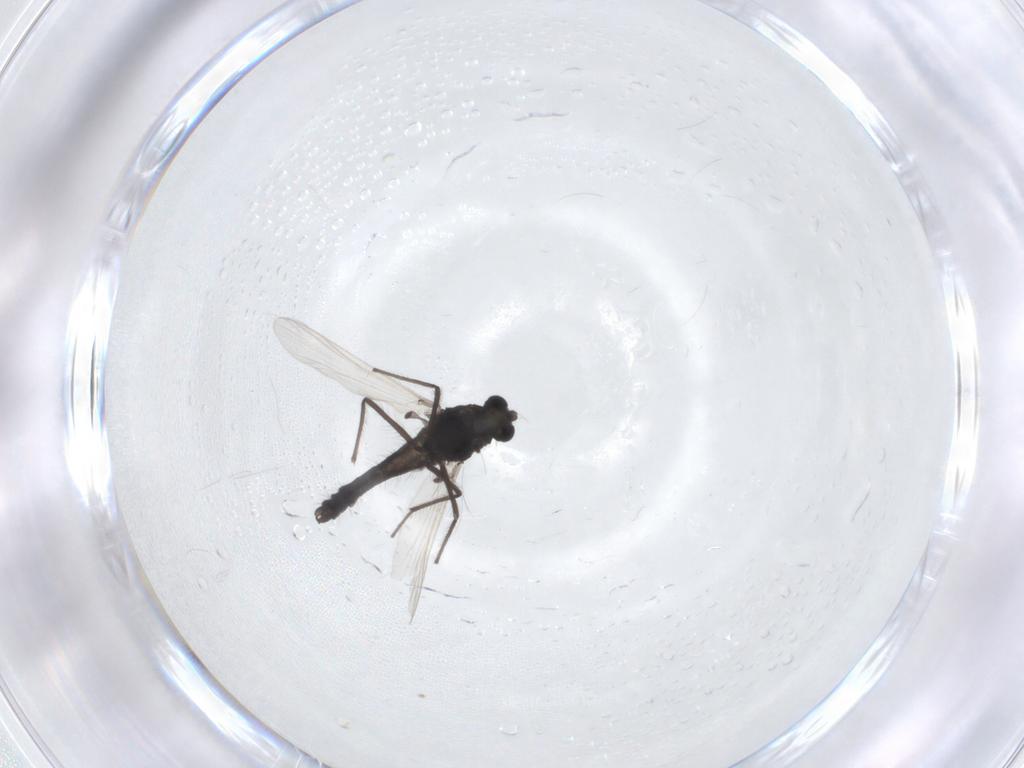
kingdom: Animalia
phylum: Arthropoda
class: Insecta
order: Diptera
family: Chironomidae
